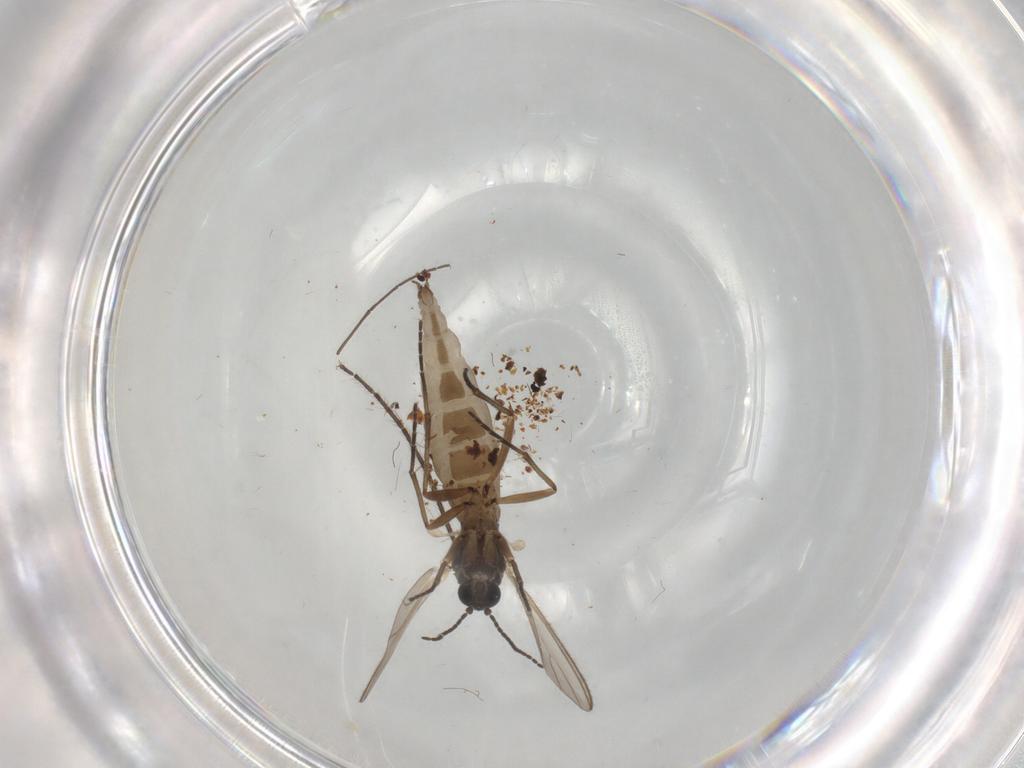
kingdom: Animalia
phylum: Arthropoda
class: Insecta
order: Diptera
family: Chironomidae
